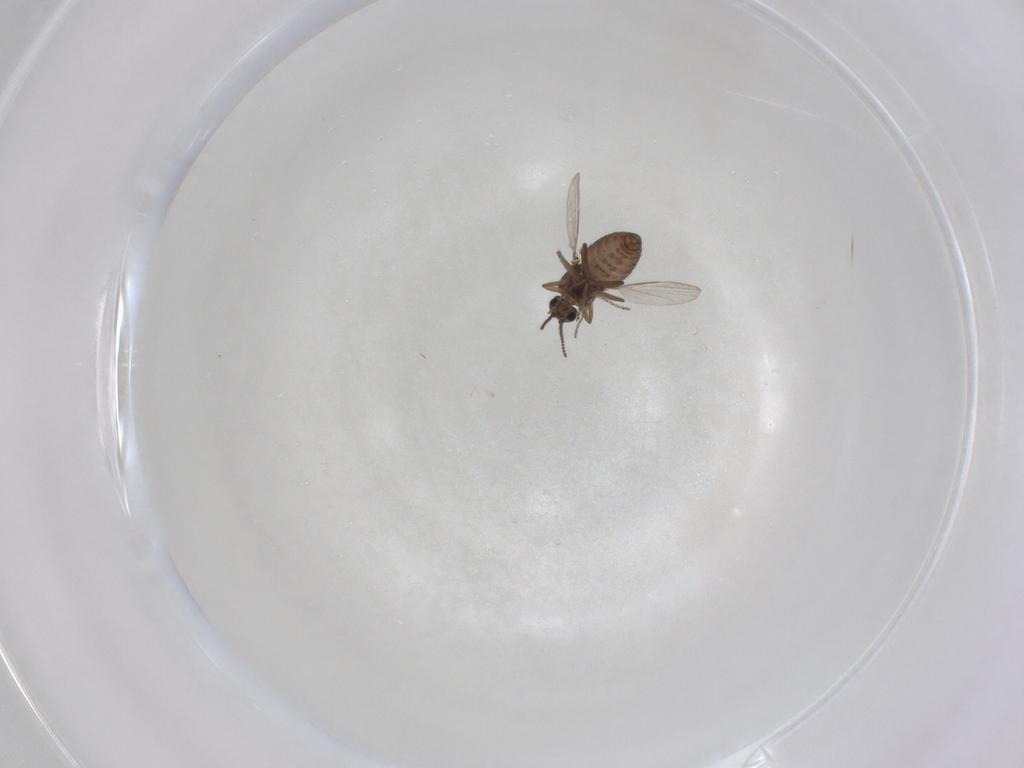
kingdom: Animalia
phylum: Arthropoda
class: Insecta
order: Diptera
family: Ceratopogonidae
